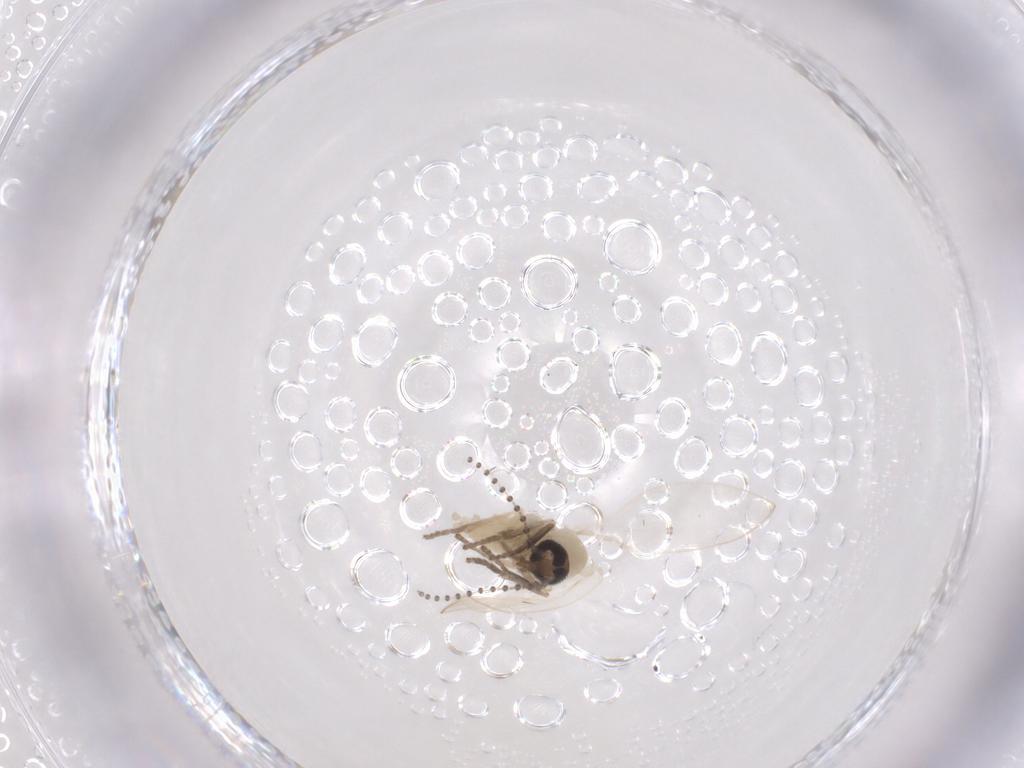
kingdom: Animalia
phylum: Arthropoda
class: Insecta
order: Diptera
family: Psychodidae
